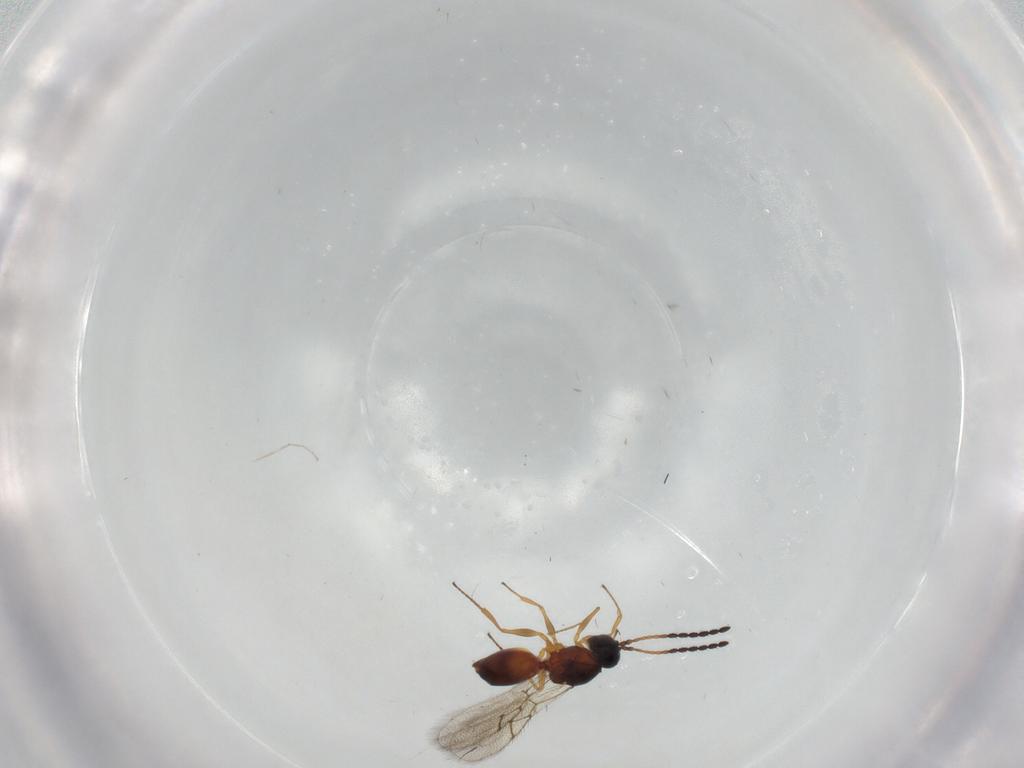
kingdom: Animalia
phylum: Arthropoda
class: Insecta
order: Hymenoptera
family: Figitidae
